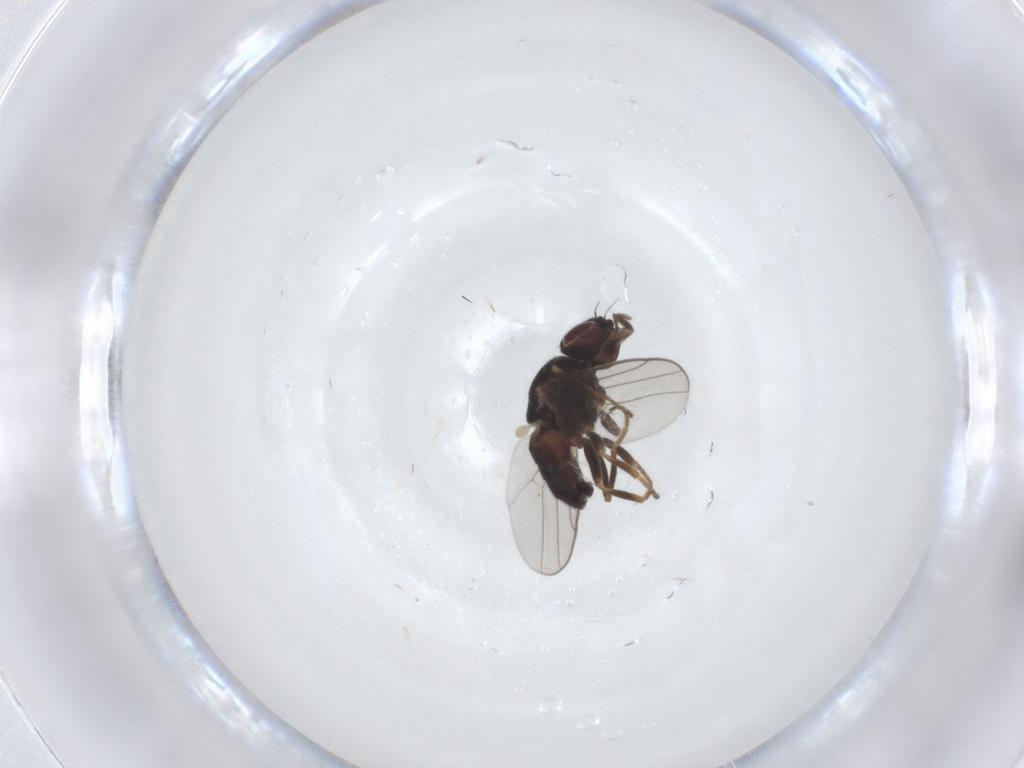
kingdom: Animalia
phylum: Arthropoda
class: Insecta
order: Diptera
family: Chloropidae
